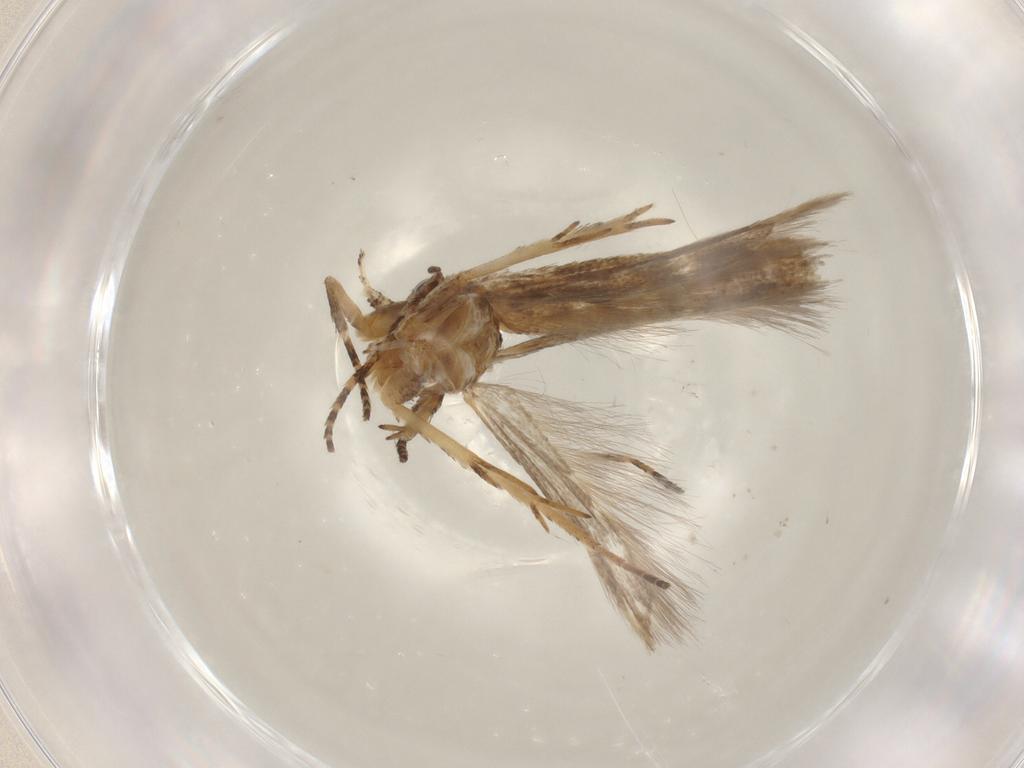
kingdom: Animalia
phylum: Arthropoda
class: Insecta
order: Lepidoptera
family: Gelechiidae
